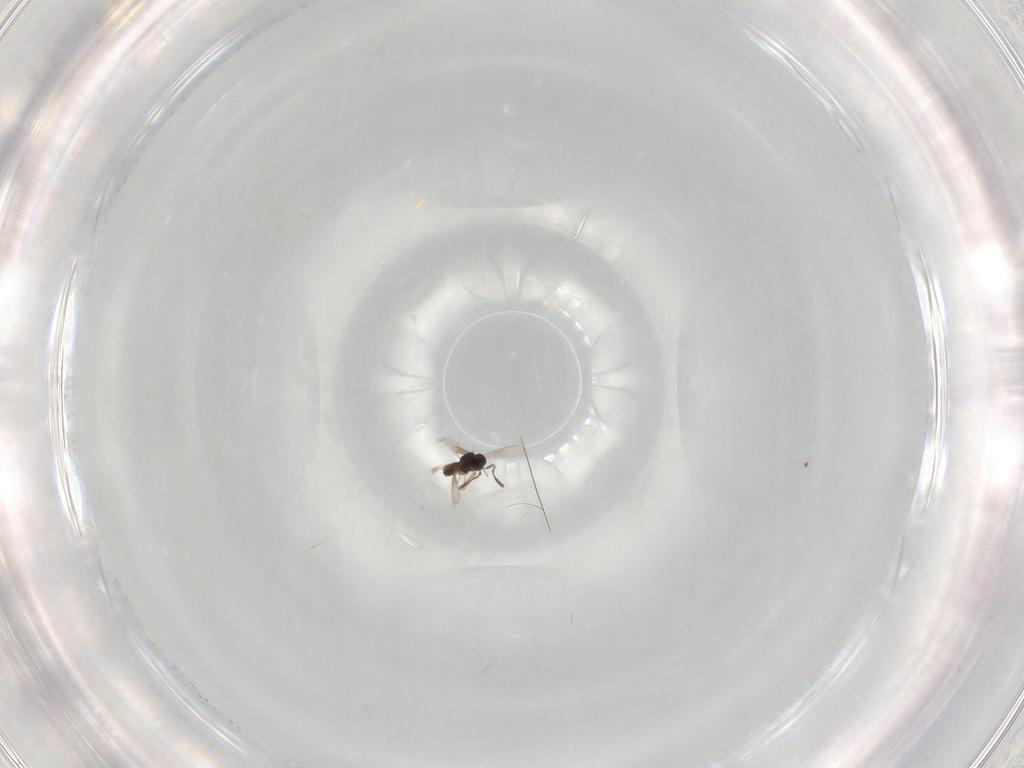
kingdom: Animalia
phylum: Arthropoda
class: Insecta
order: Hymenoptera
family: Scelionidae
